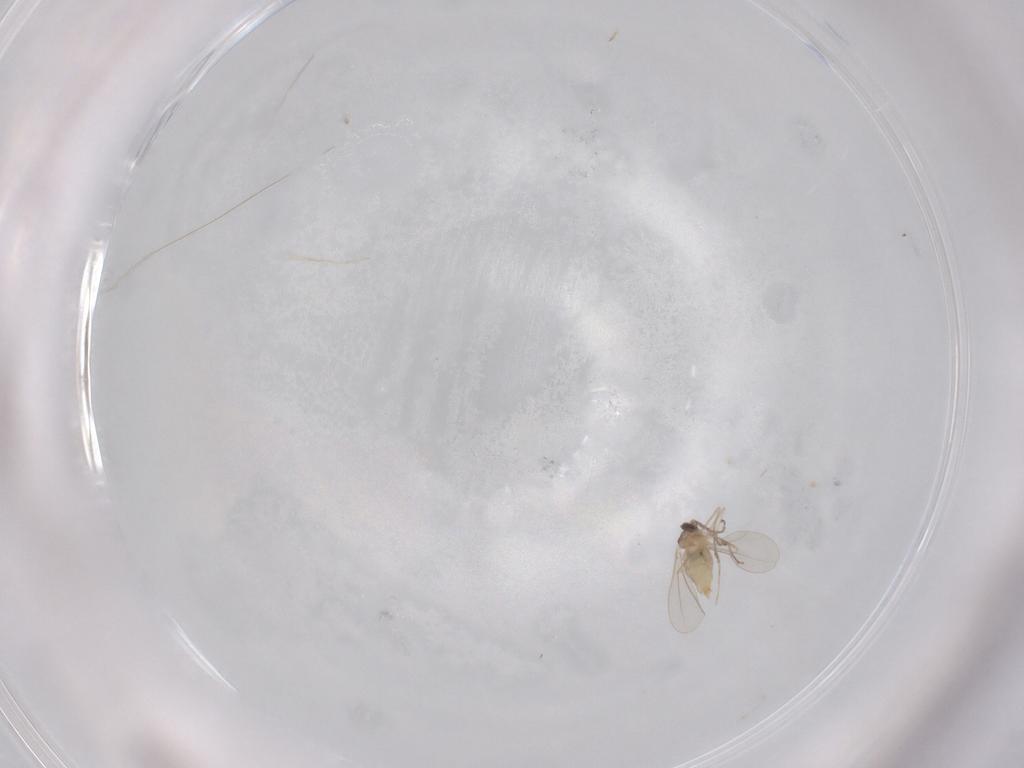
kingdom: Animalia
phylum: Arthropoda
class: Insecta
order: Diptera
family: Cecidomyiidae
